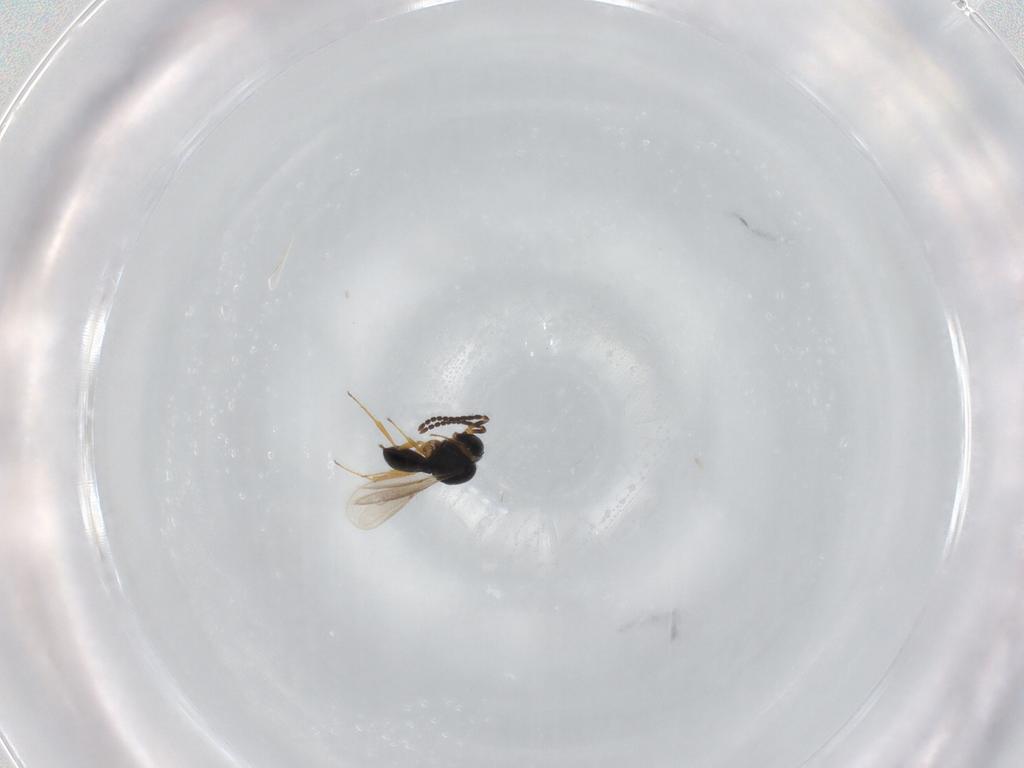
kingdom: Animalia
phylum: Arthropoda
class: Insecta
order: Hymenoptera
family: Scelionidae
